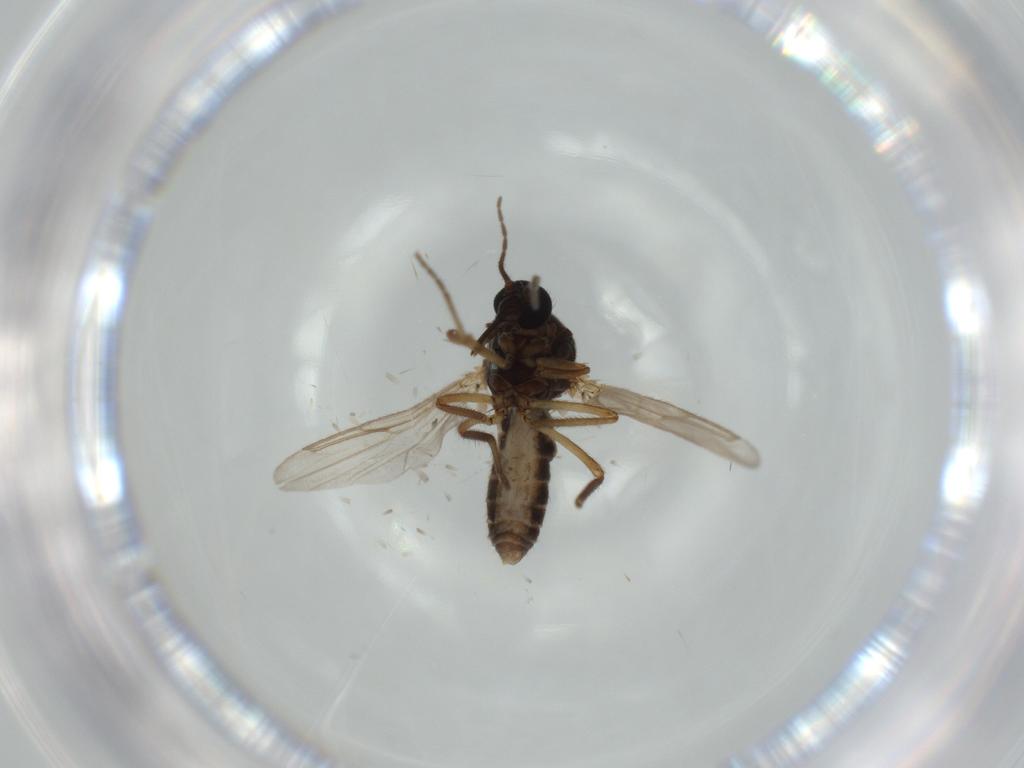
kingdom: Animalia
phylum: Arthropoda
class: Insecta
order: Diptera
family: Ceratopogonidae
